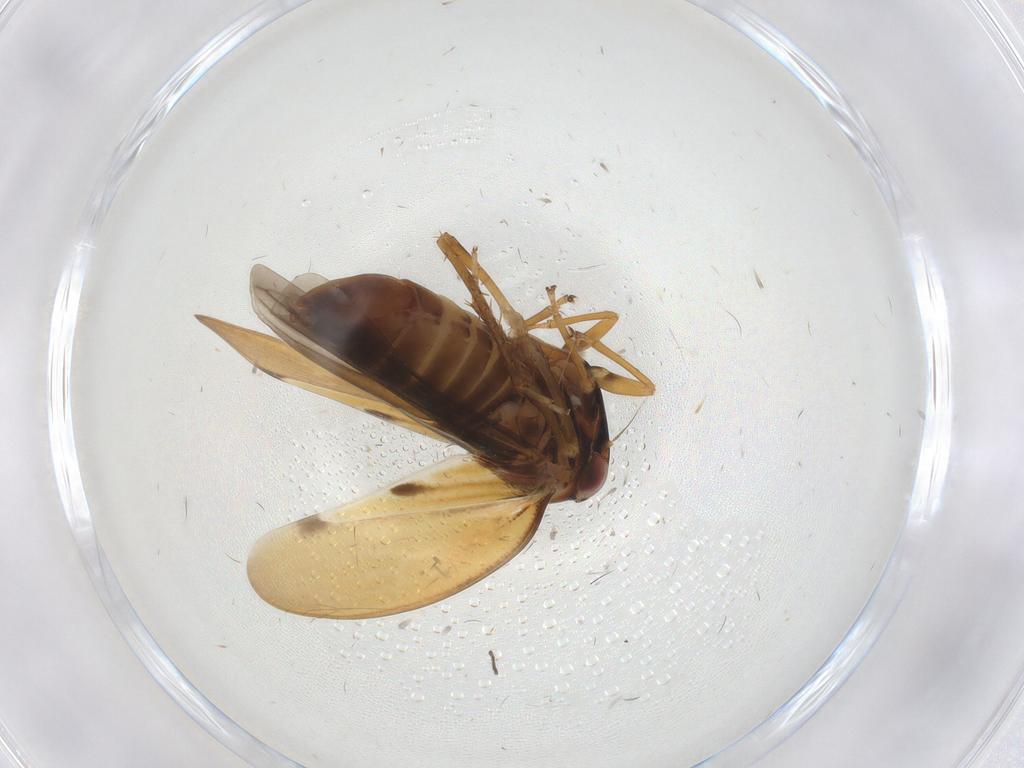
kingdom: Animalia
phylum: Arthropoda
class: Insecta
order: Hemiptera
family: Cicadellidae
